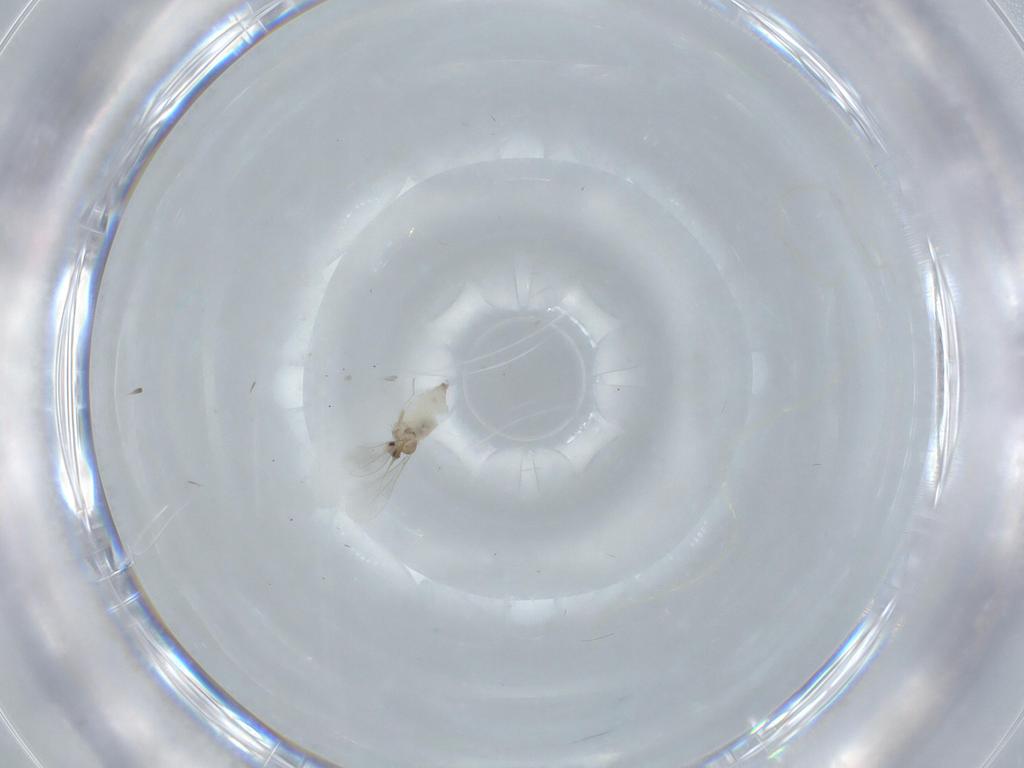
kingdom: Animalia
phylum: Arthropoda
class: Insecta
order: Diptera
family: Cecidomyiidae
